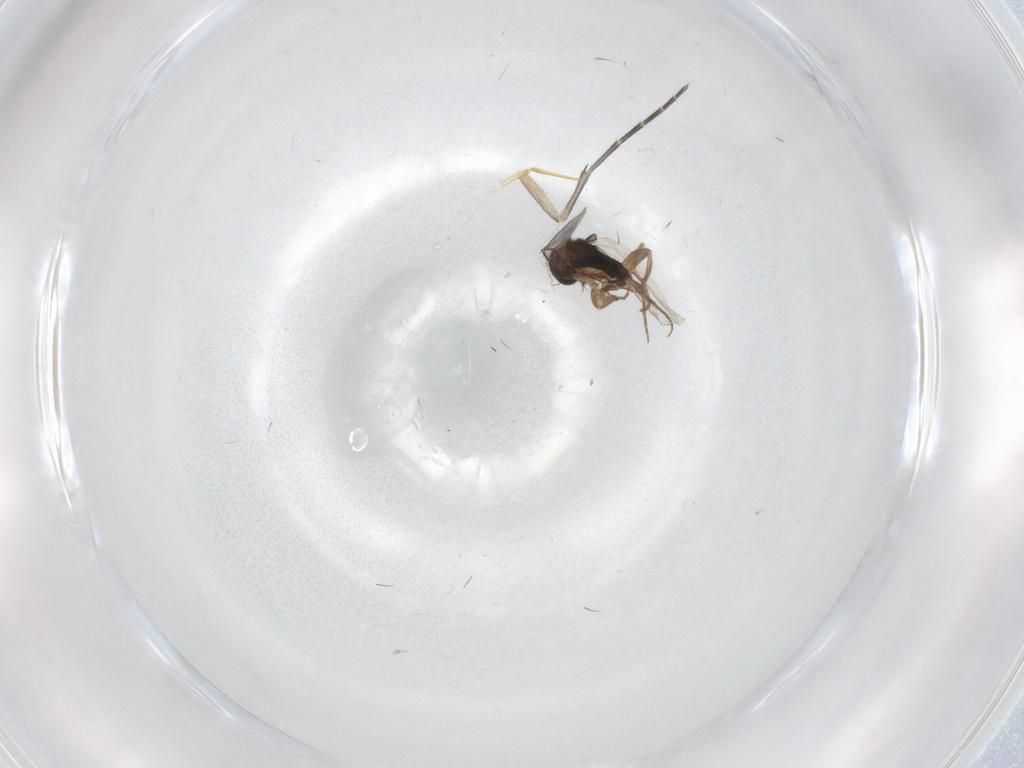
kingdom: Animalia
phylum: Arthropoda
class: Insecta
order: Diptera
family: Phoridae
